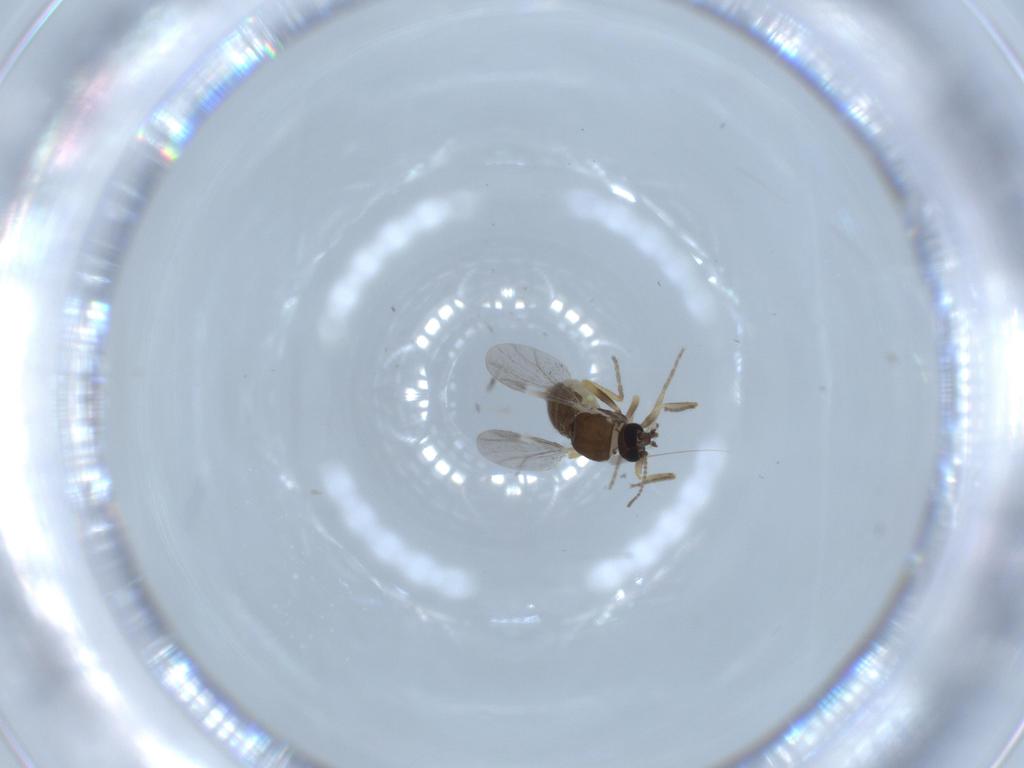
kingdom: Animalia
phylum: Arthropoda
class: Insecta
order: Diptera
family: Ceratopogonidae
